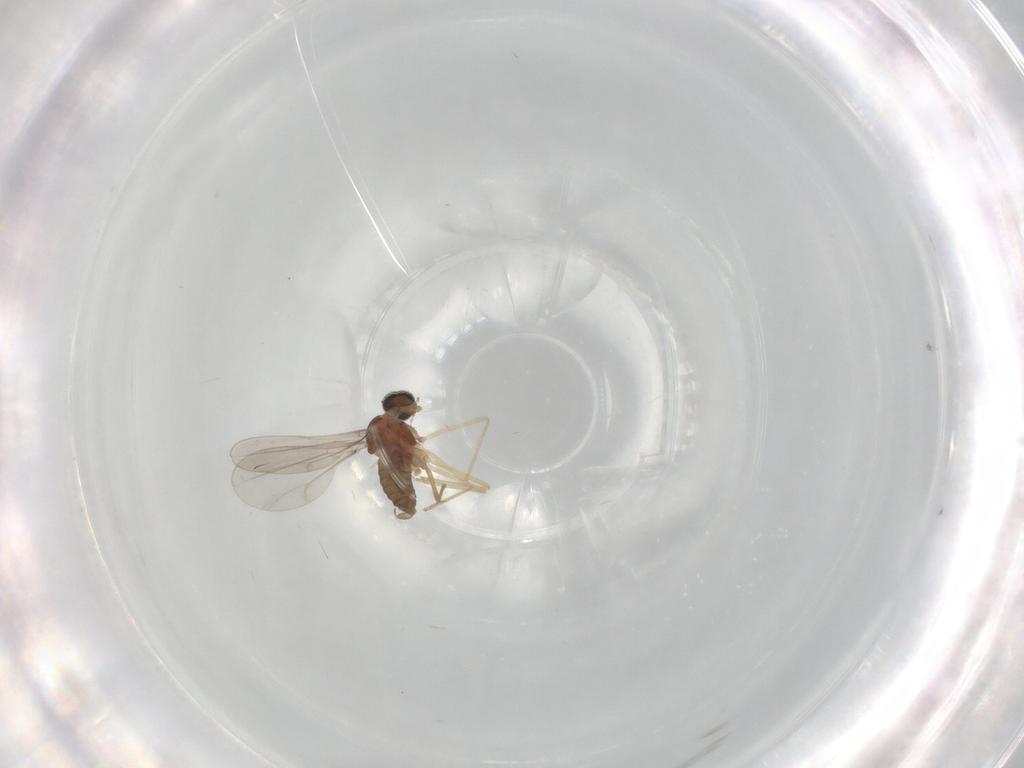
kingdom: Animalia
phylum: Arthropoda
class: Insecta
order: Diptera
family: Cecidomyiidae
